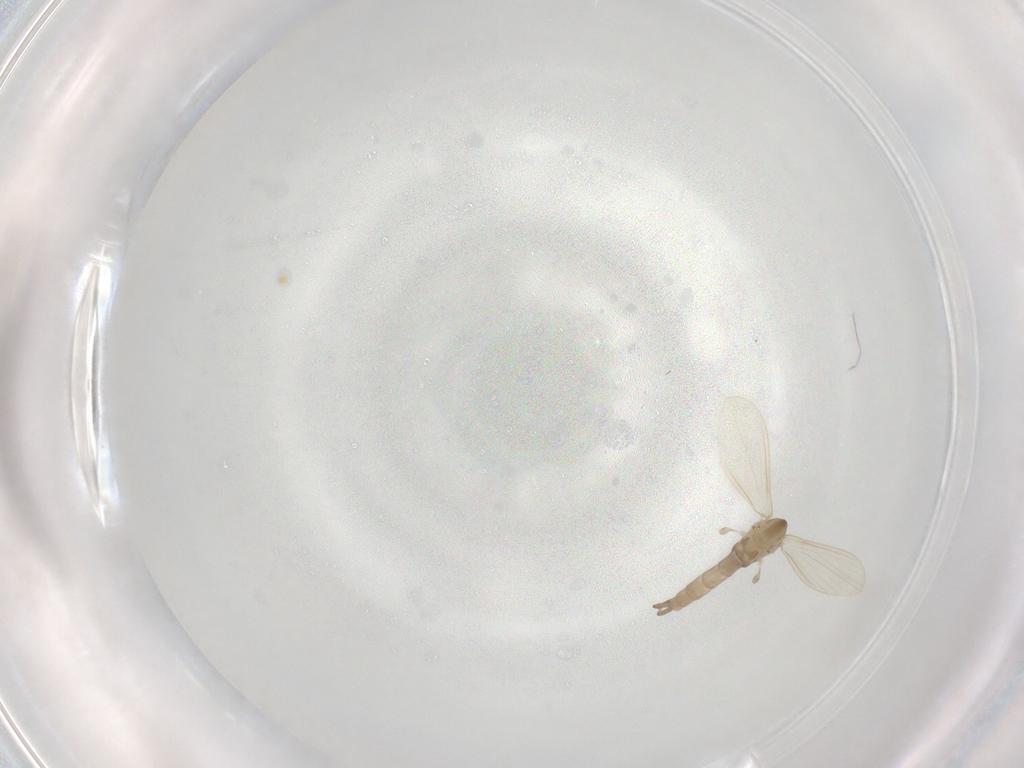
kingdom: Animalia
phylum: Arthropoda
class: Insecta
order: Diptera
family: Psychodidae
